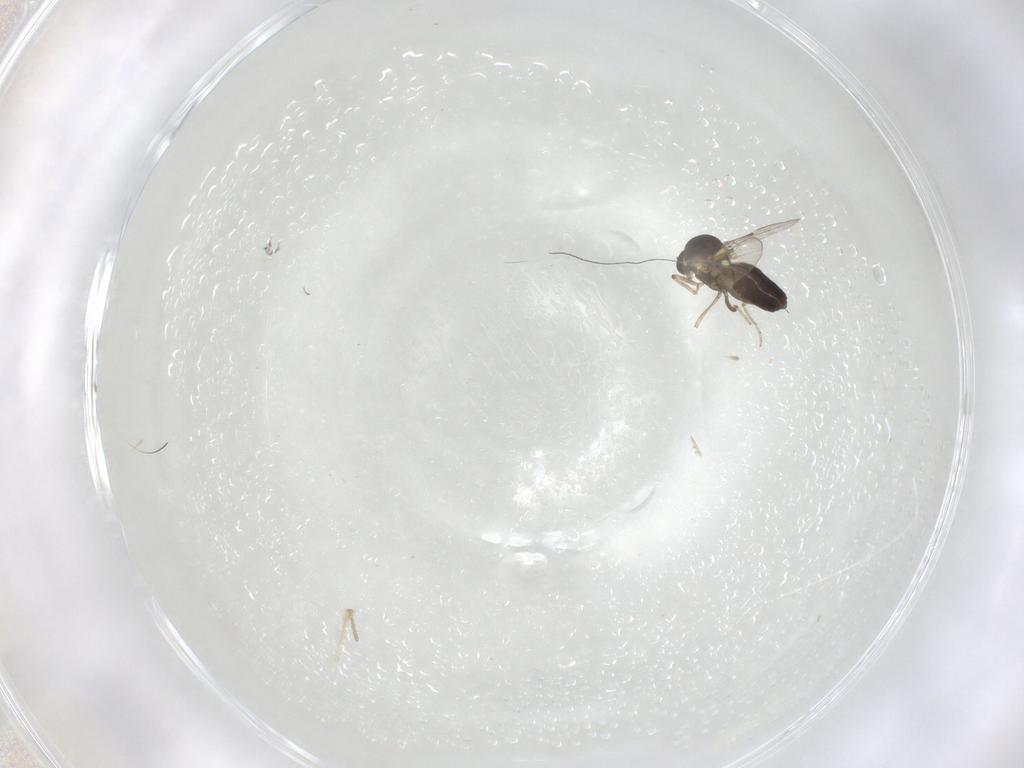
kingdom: Animalia
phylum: Arthropoda
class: Insecta
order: Diptera
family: Ceratopogonidae
